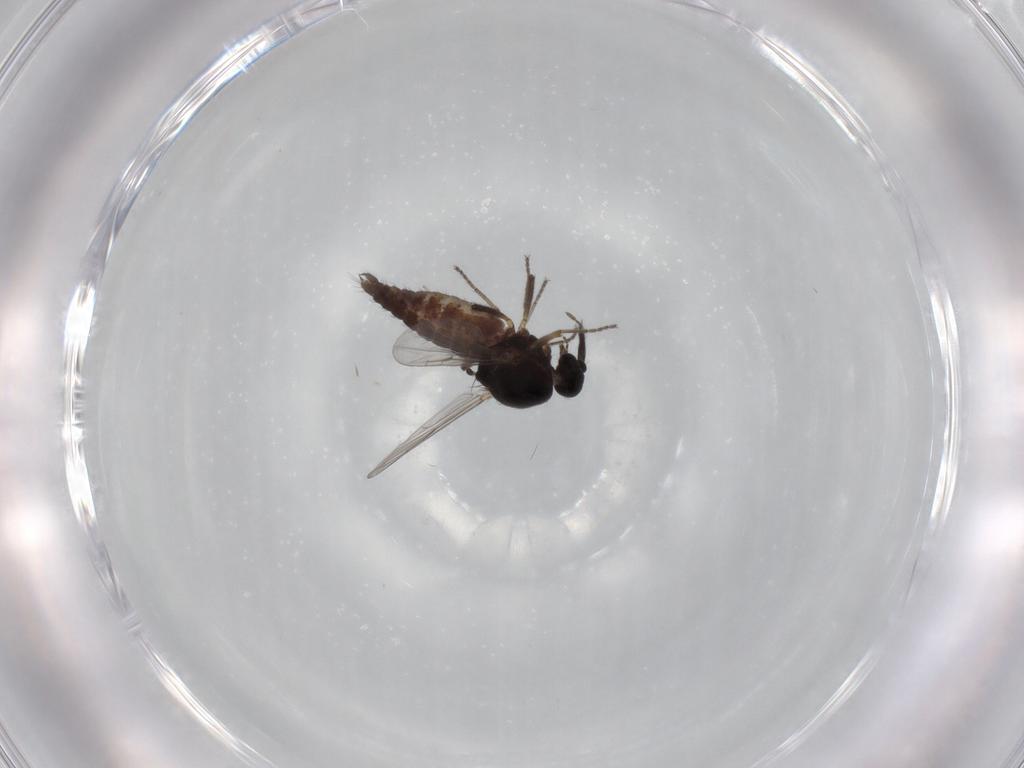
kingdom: Animalia
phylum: Arthropoda
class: Insecta
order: Diptera
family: Ceratopogonidae
